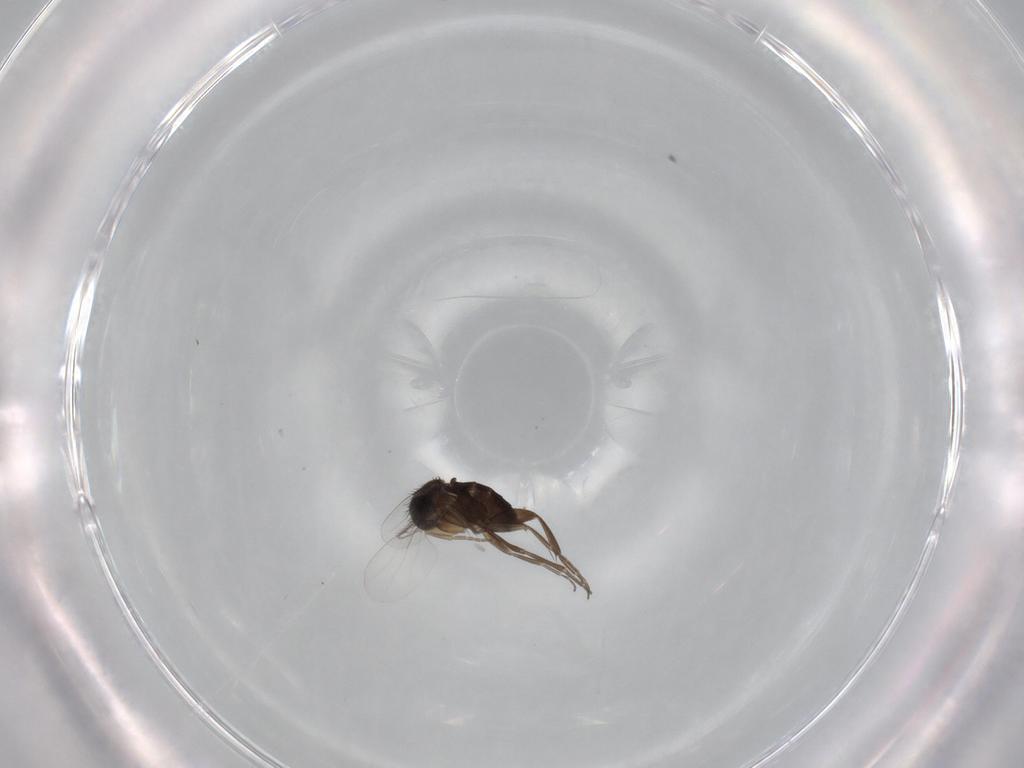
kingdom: Animalia
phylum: Arthropoda
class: Insecta
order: Diptera
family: Phoridae
